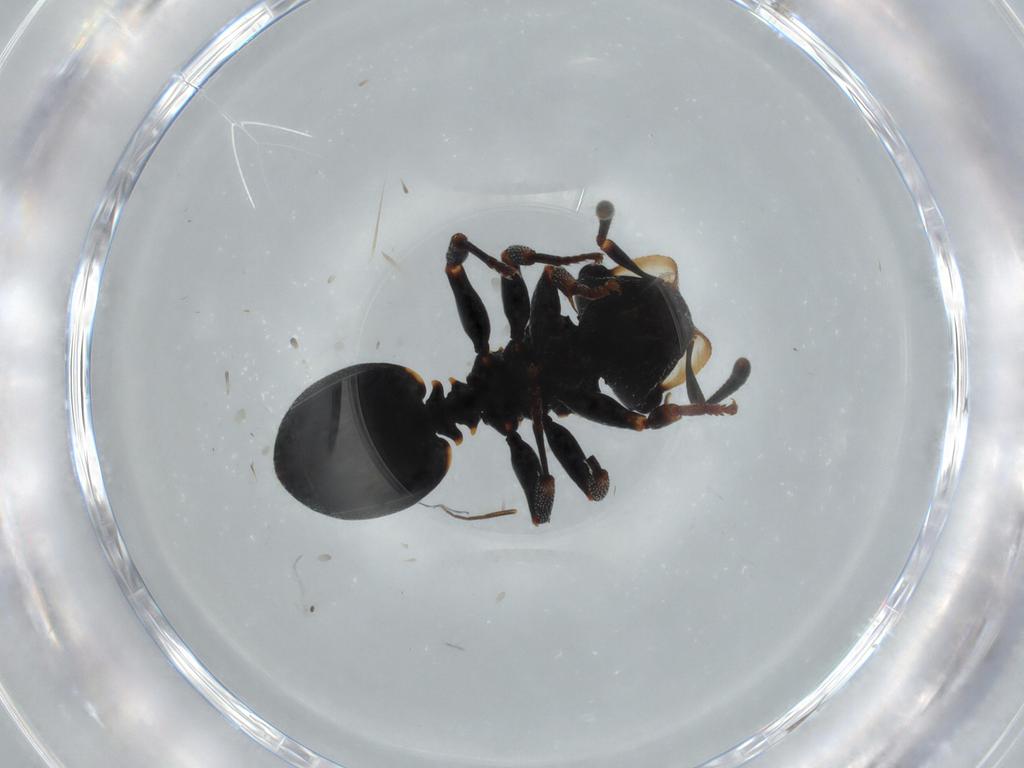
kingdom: Animalia
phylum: Arthropoda
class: Insecta
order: Hymenoptera
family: Formicidae
